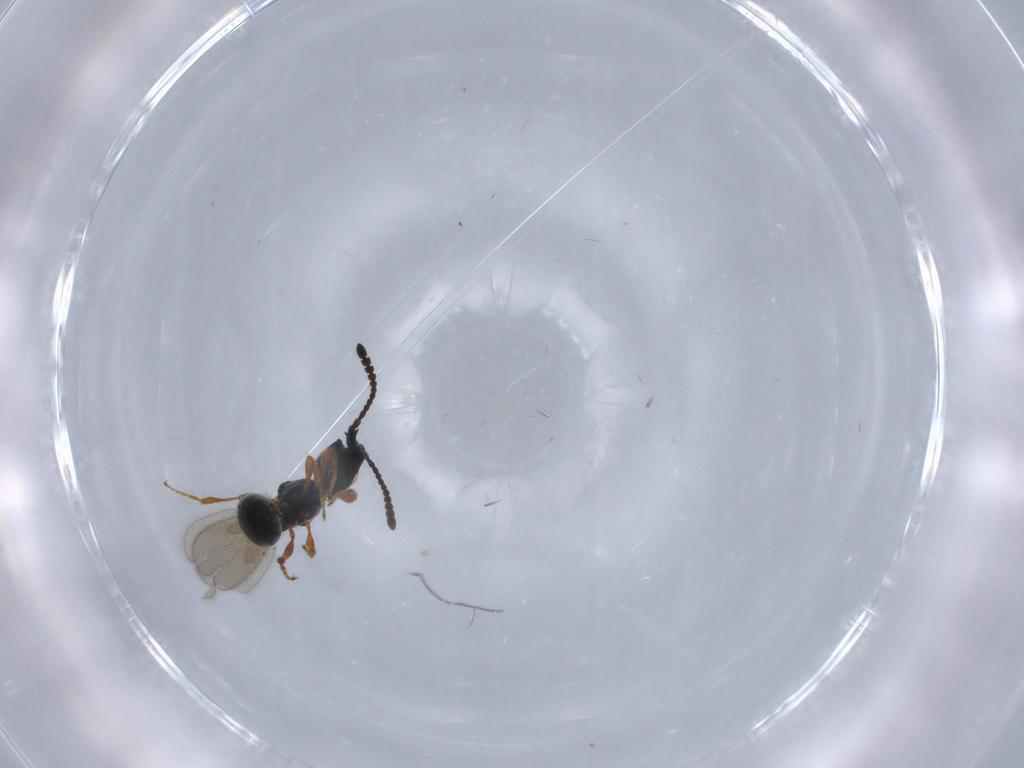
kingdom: Animalia
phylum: Arthropoda
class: Insecta
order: Hymenoptera
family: Diapriidae
